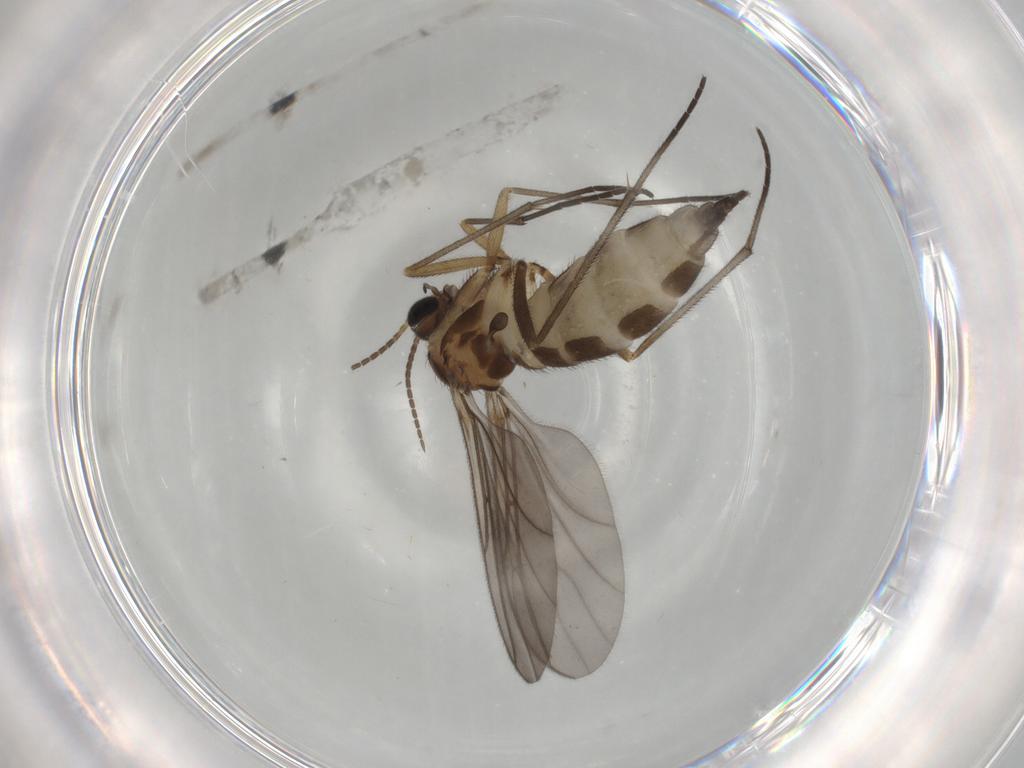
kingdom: Animalia
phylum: Arthropoda
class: Insecta
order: Diptera
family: Sciaridae
